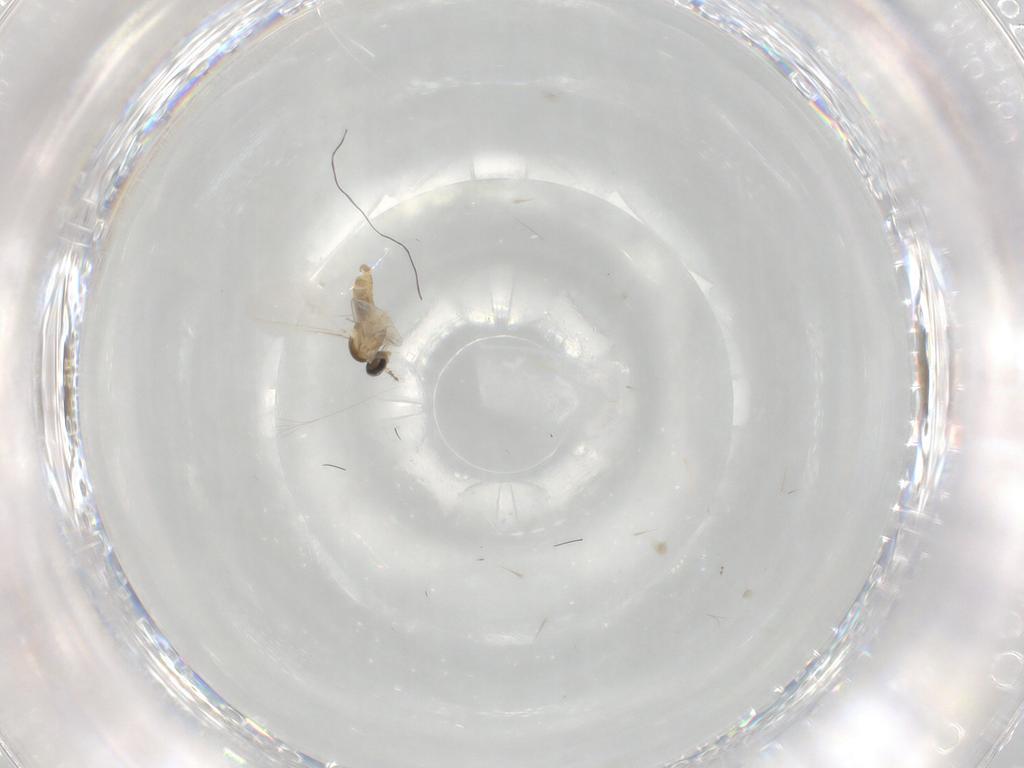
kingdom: Animalia
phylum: Arthropoda
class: Insecta
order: Diptera
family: Cecidomyiidae
